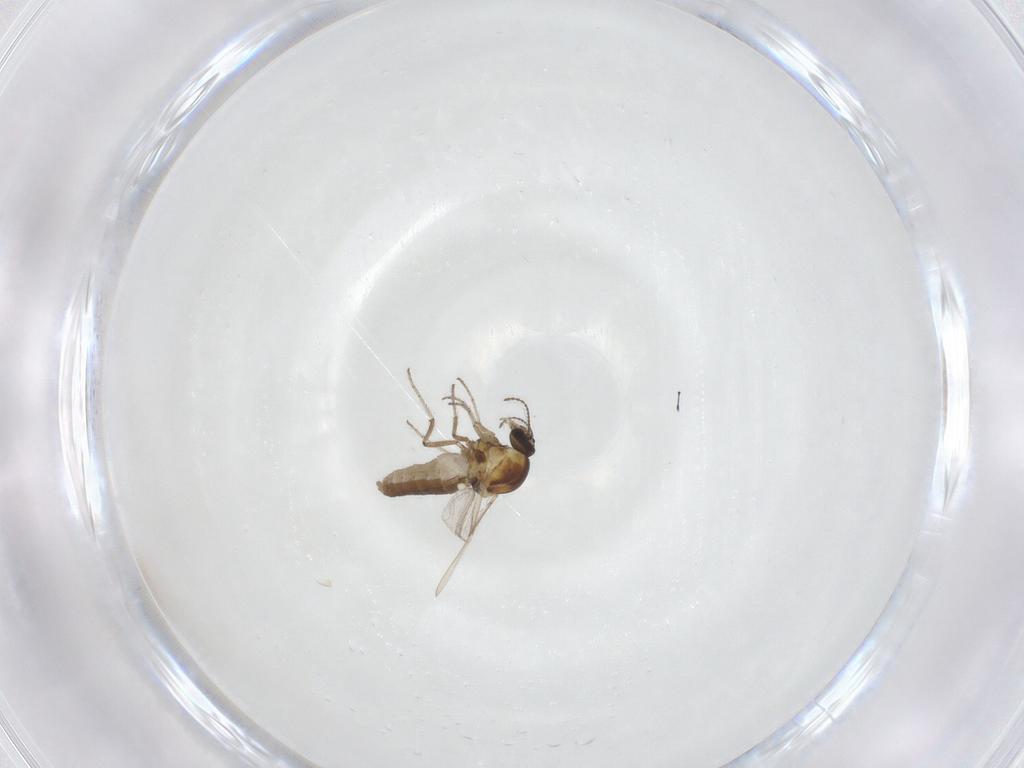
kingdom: Animalia
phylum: Arthropoda
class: Insecta
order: Diptera
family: Ceratopogonidae
